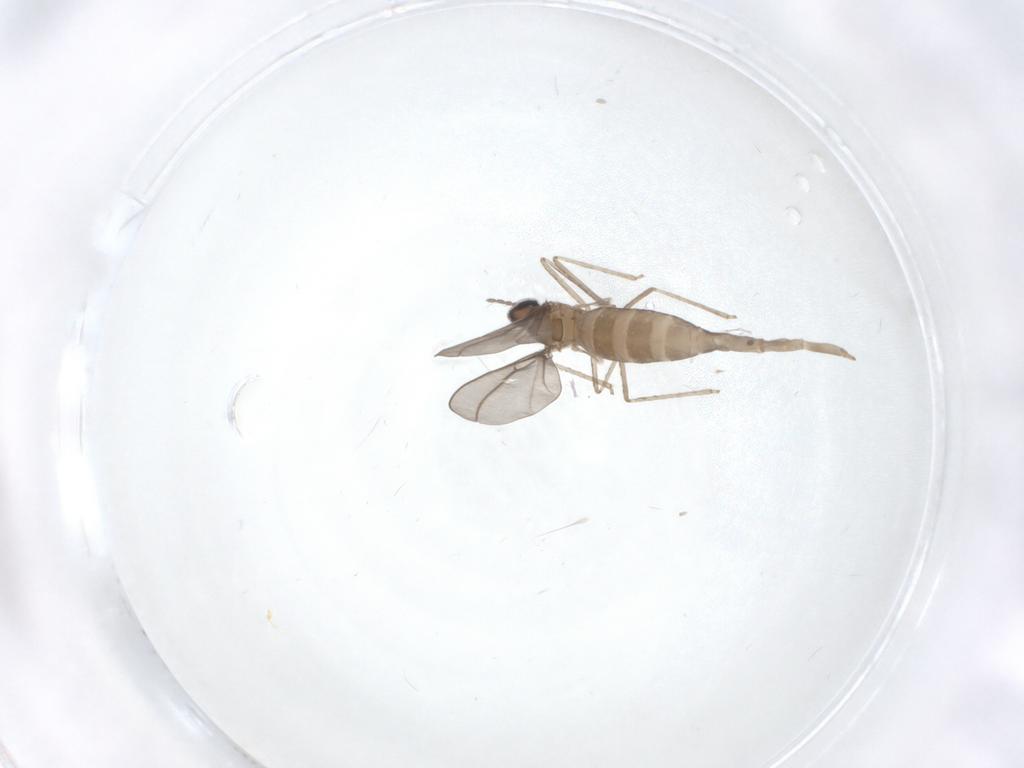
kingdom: Animalia
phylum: Arthropoda
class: Insecta
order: Diptera
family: Cecidomyiidae
